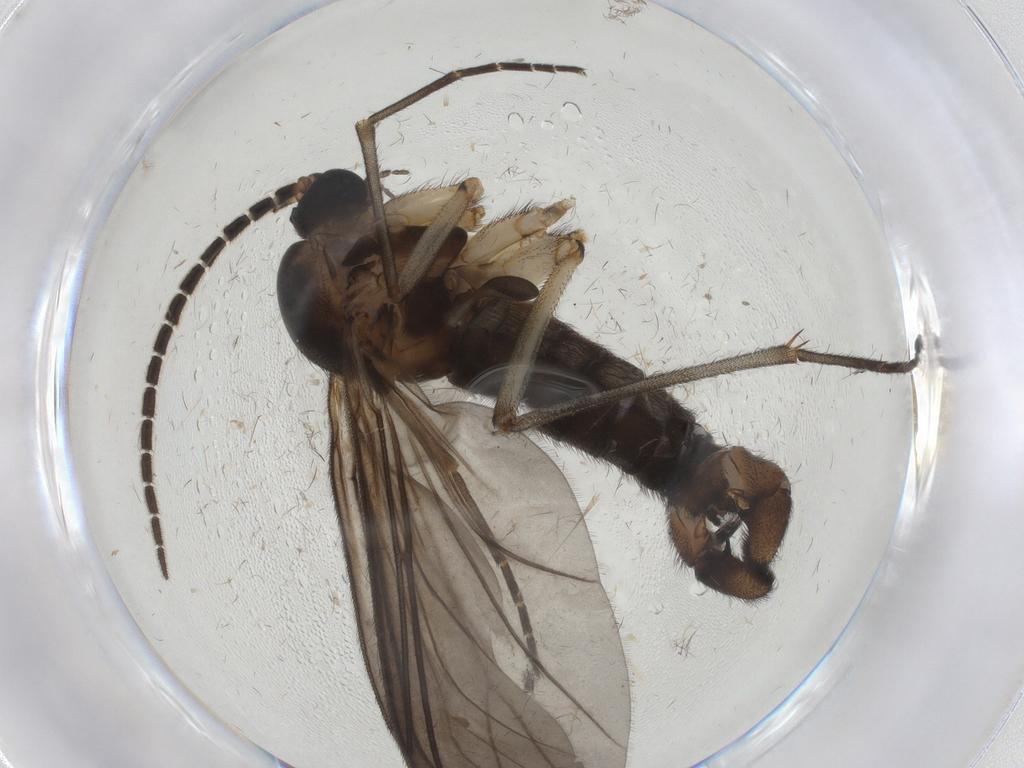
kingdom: Animalia
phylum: Arthropoda
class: Insecta
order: Diptera
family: Chironomidae
